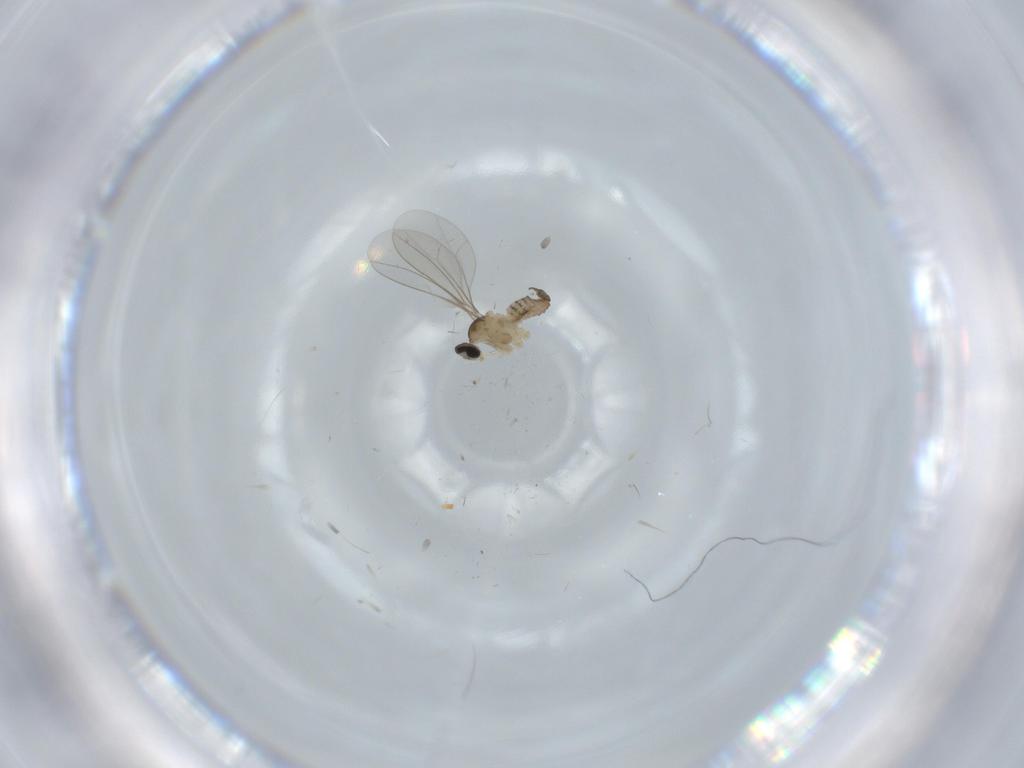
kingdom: Animalia
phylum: Arthropoda
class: Insecta
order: Diptera
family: Cecidomyiidae
